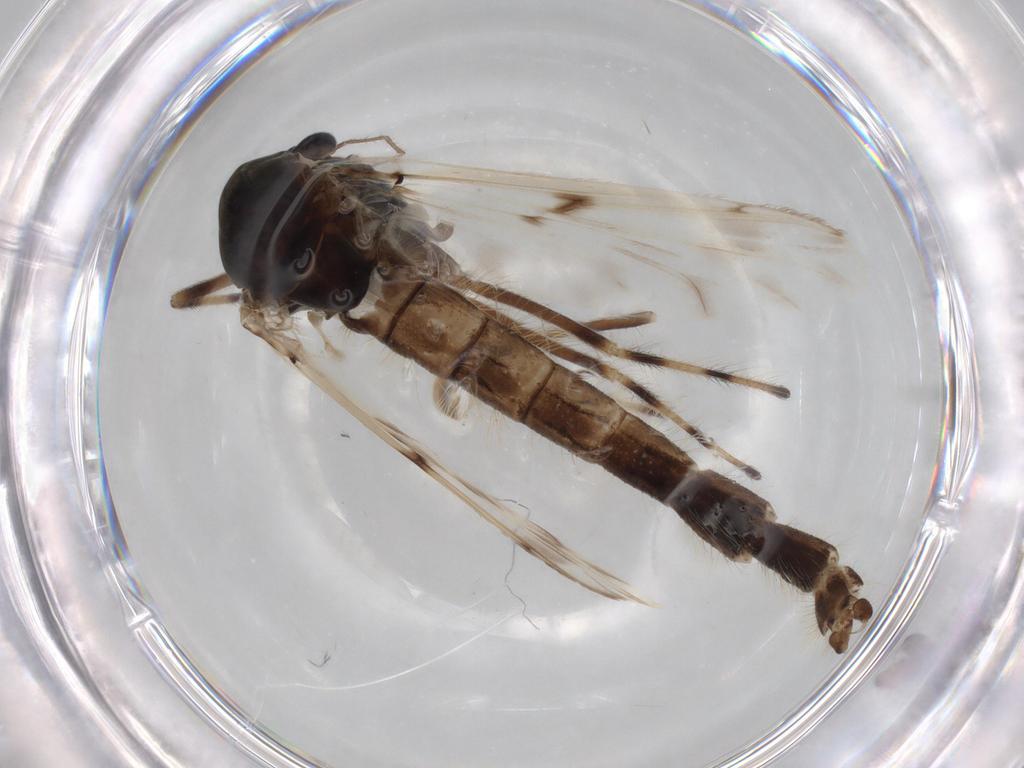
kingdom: Animalia
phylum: Arthropoda
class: Insecta
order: Diptera
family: Chironomidae
